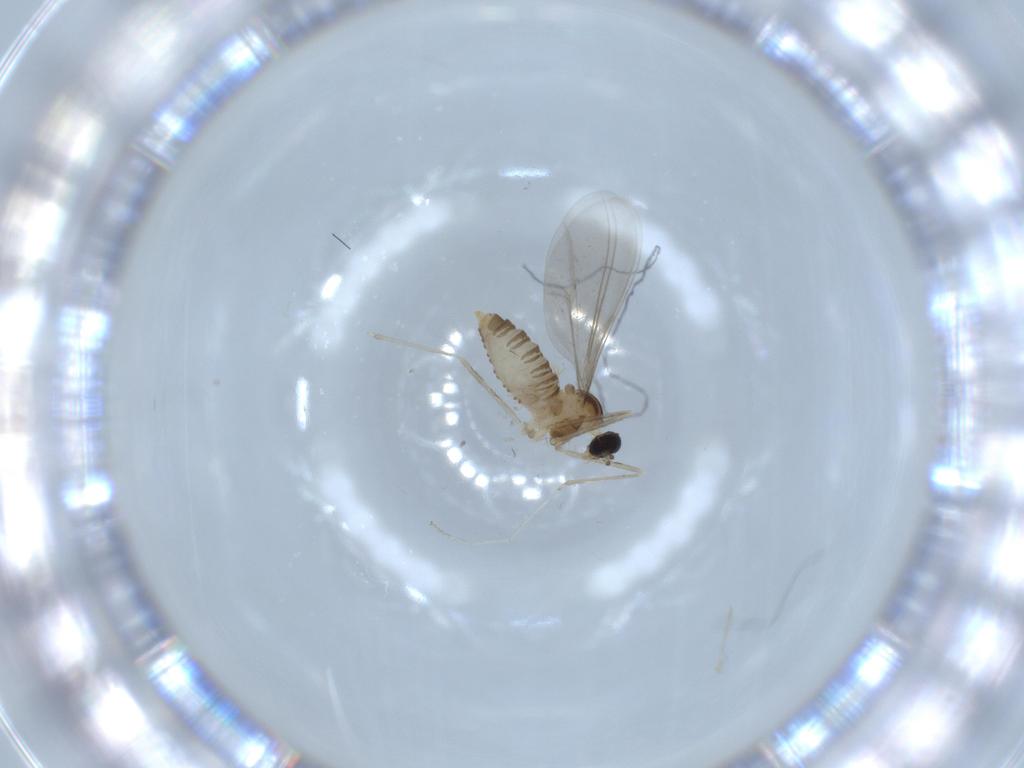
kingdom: Animalia
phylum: Arthropoda
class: Insecta
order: Diptera
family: Cecidomyiidae
